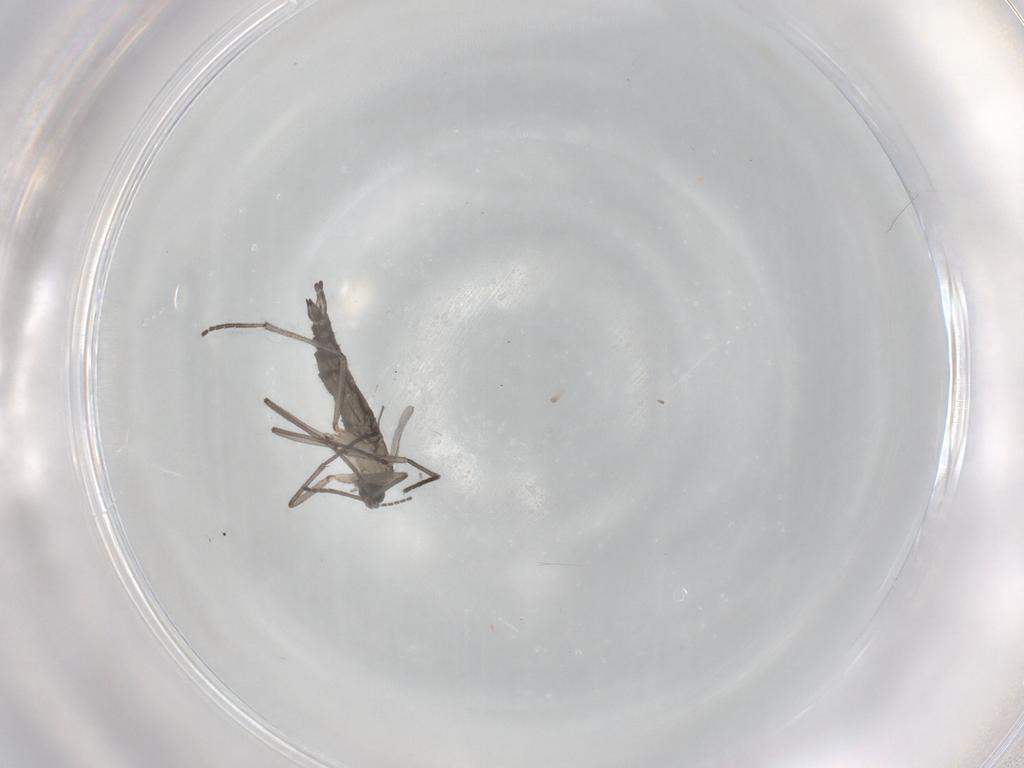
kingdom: Animalia
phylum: Arthropoda
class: Insecta
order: Diptera
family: Sciaridae
